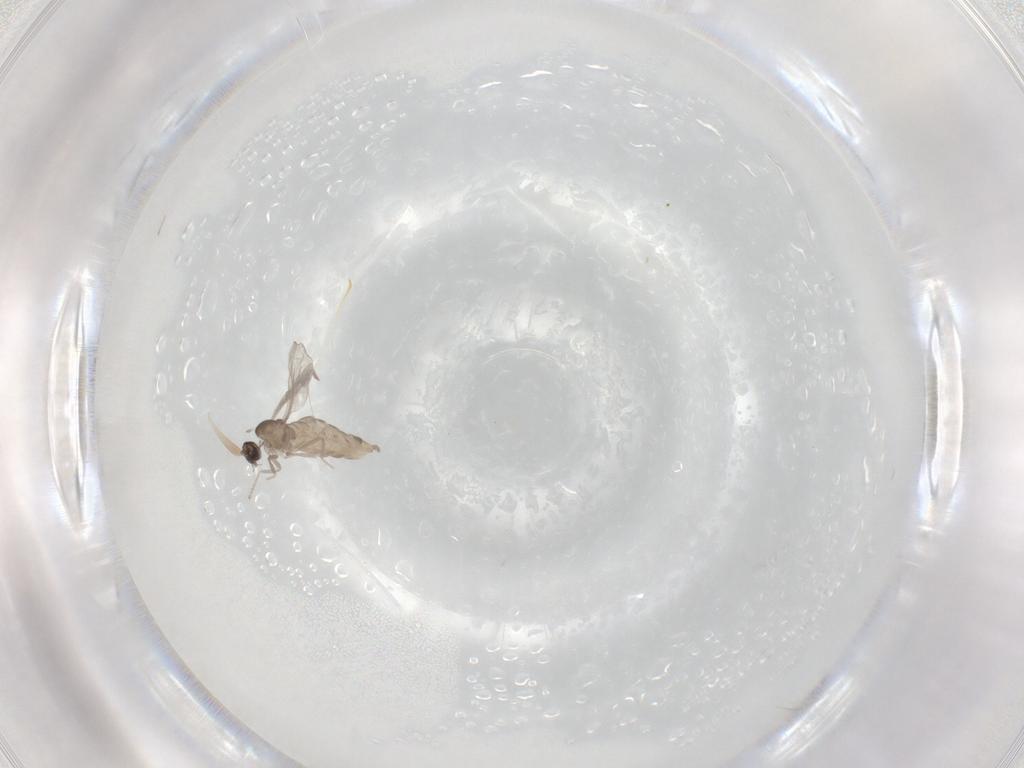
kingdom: Animalia
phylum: Arthropoda
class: Insecta
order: Diptera
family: Cecidomyiidae
